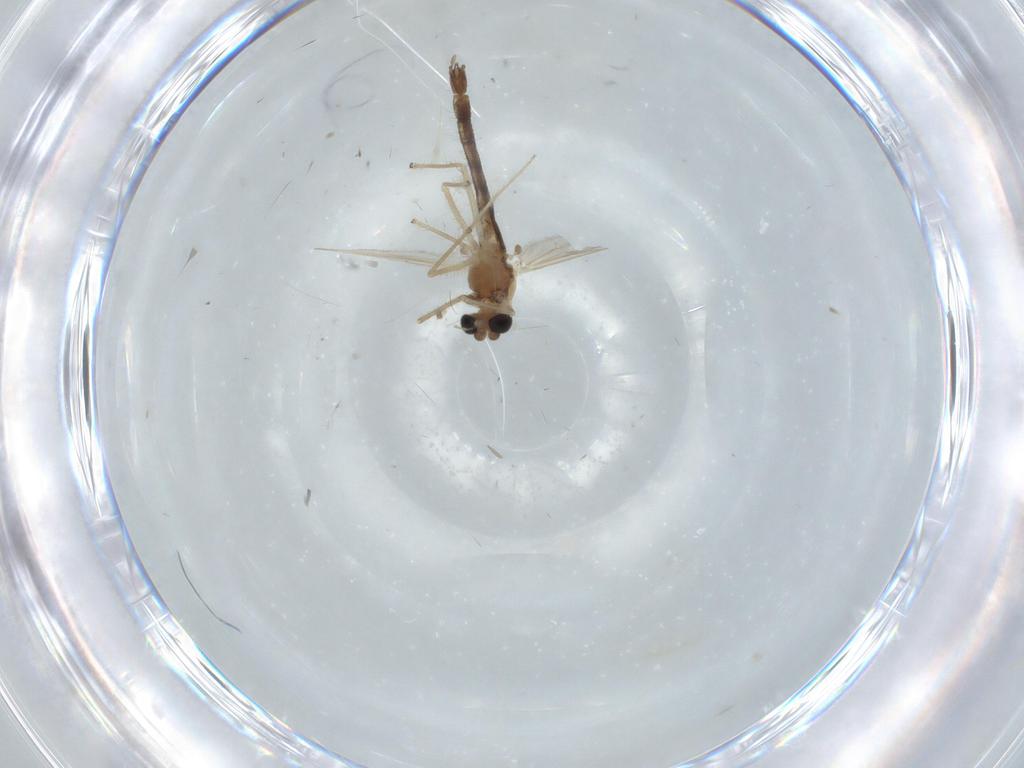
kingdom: Animalia
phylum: Arthropoda
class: Insecta
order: Diptera
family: Chironomidae
